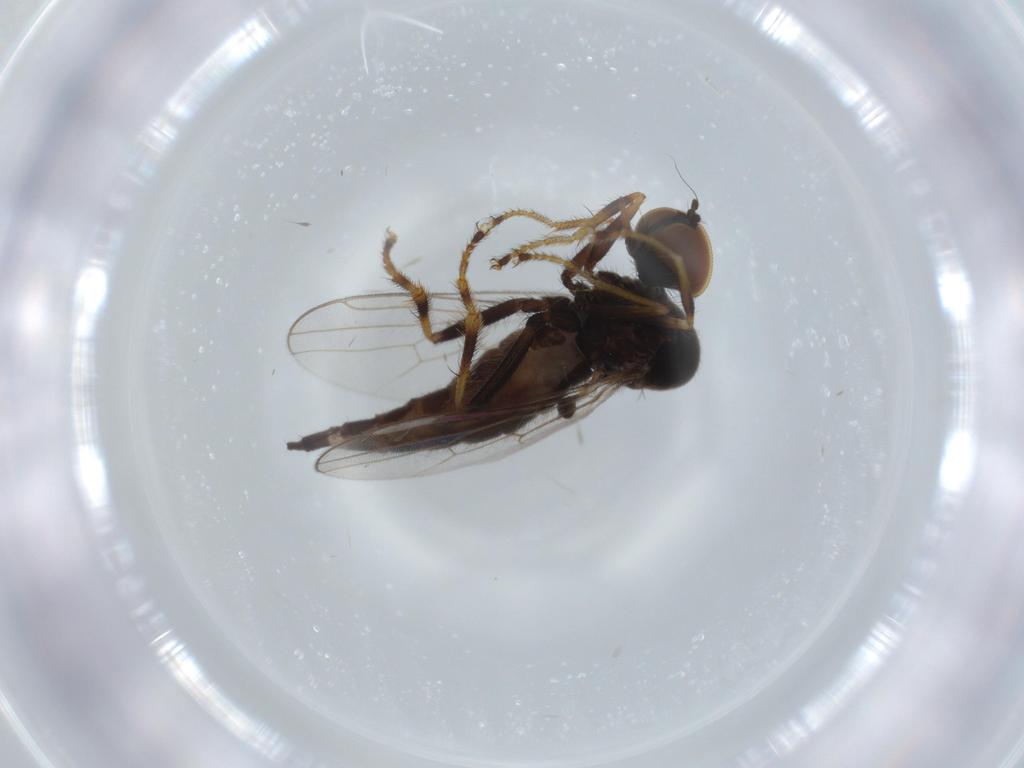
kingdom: Animalia
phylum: Arthropoda
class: Insecta
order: Diptera
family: Hybotidae
